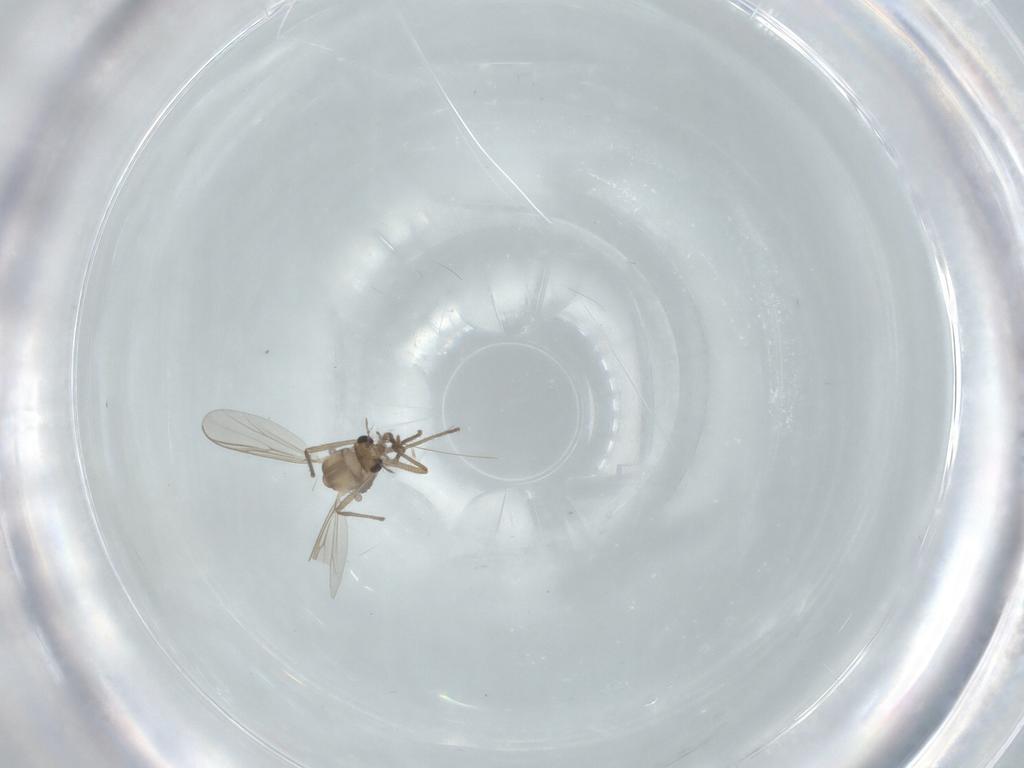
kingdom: Animalia
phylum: Arthropoda
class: Insecta
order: Diptera
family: Chironomidae
